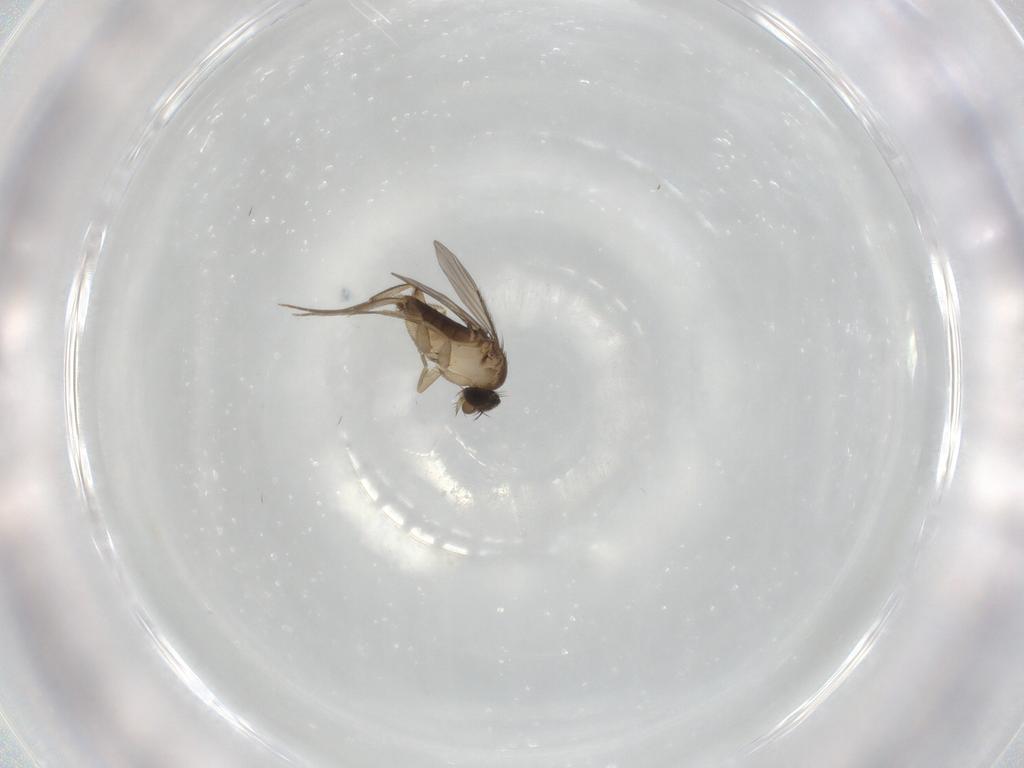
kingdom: Animalia
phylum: Arthropoda
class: Insecta
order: Diptera
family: Phoridae
